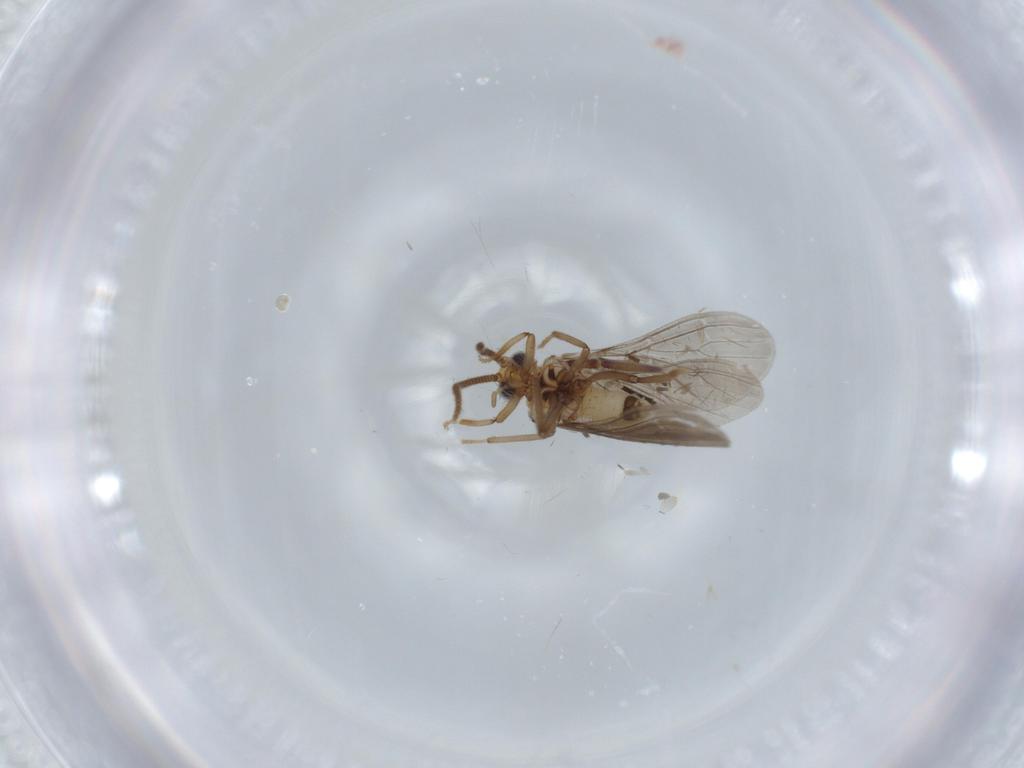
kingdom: Animalia
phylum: Arthropoda
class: Insecta
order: Neuroptera
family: Coniopterygidae
